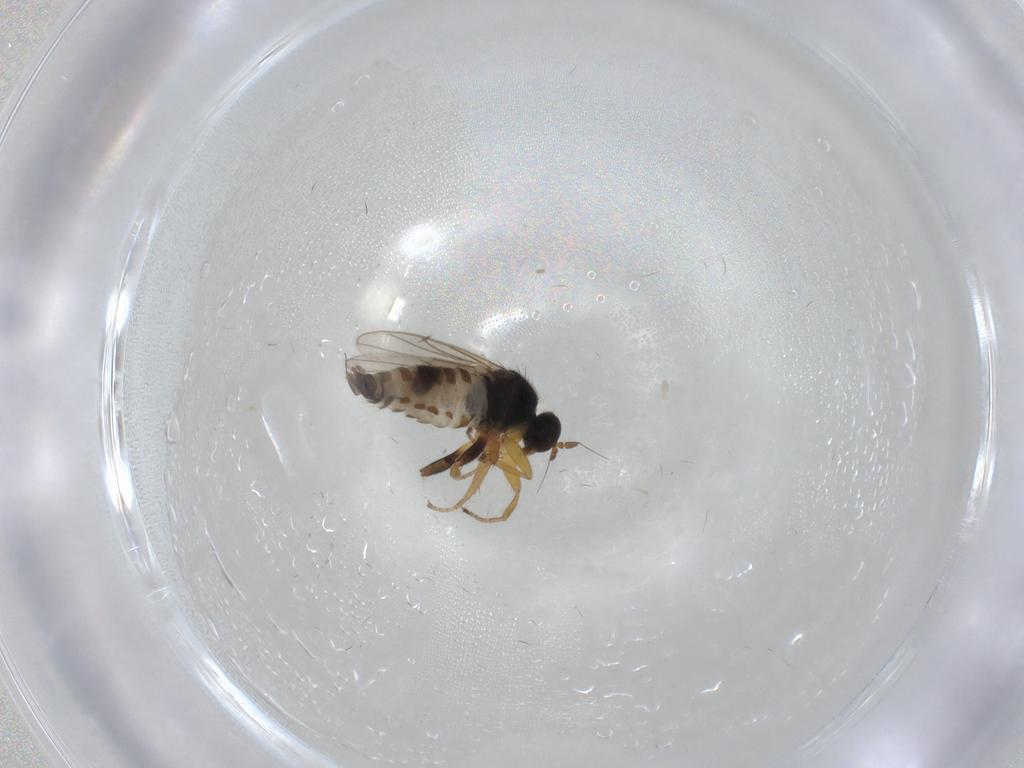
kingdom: Animalia
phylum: Arthropoda
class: Insecta
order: Diptera
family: Hybotidae
